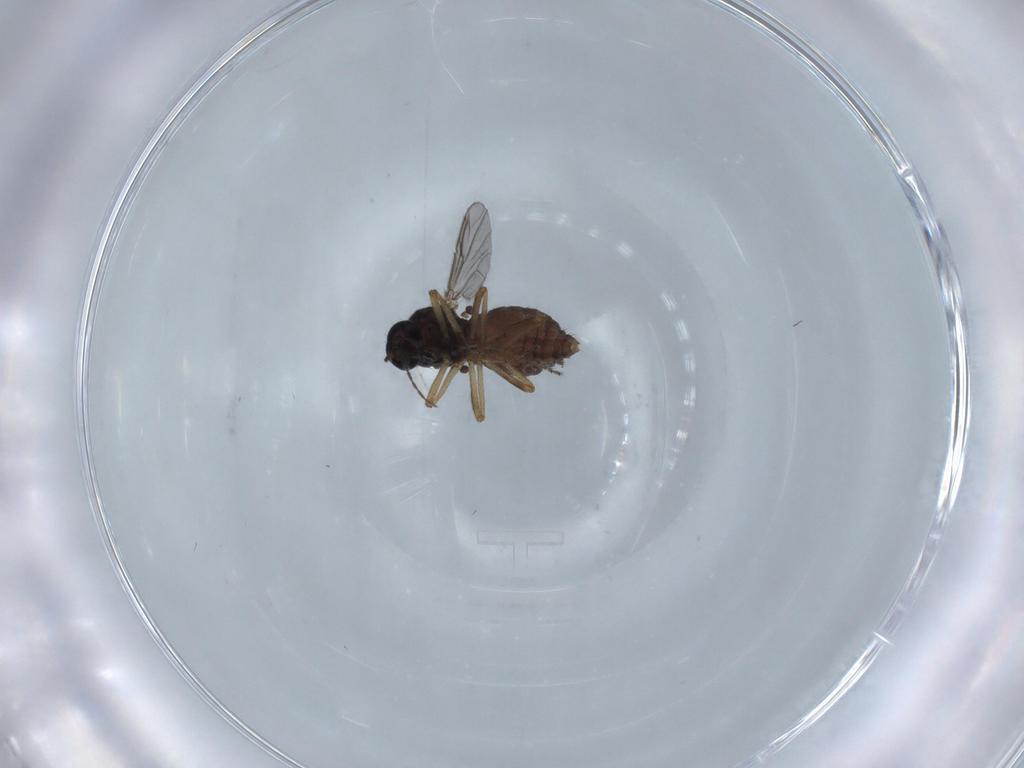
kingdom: Animalia
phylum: Arthropoda
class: Insecta
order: Diptera
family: Ceratopogonidae
